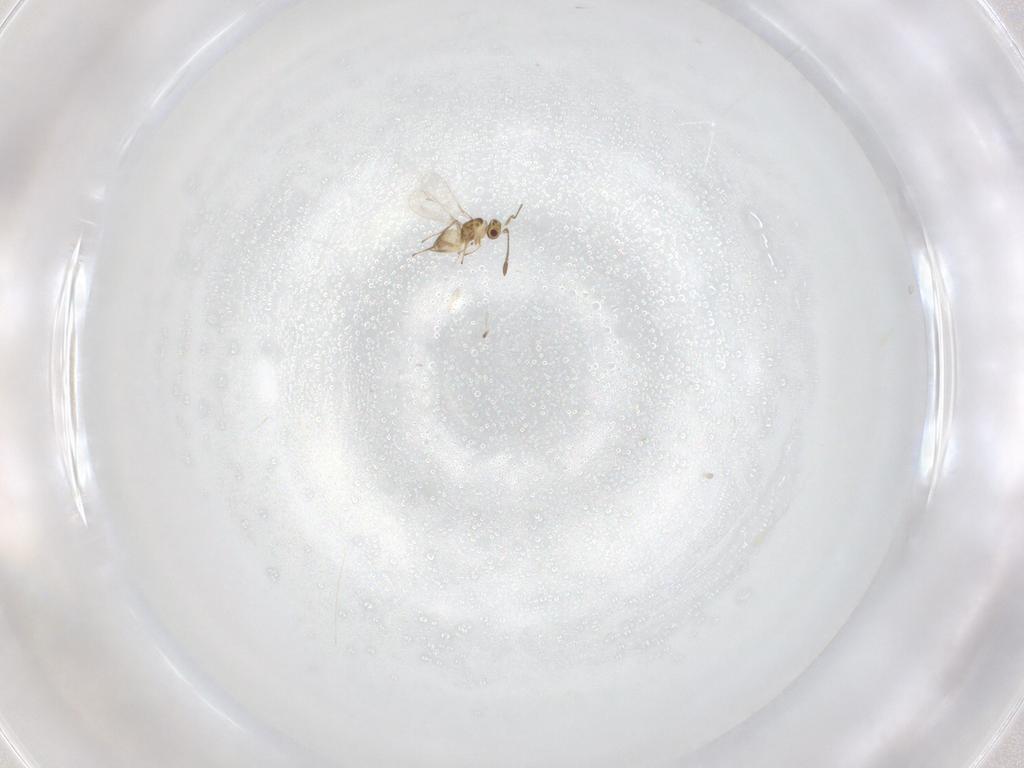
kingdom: Animalia
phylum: Arthropoda
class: Insecta
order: Hymenoptera
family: Mymaridae
